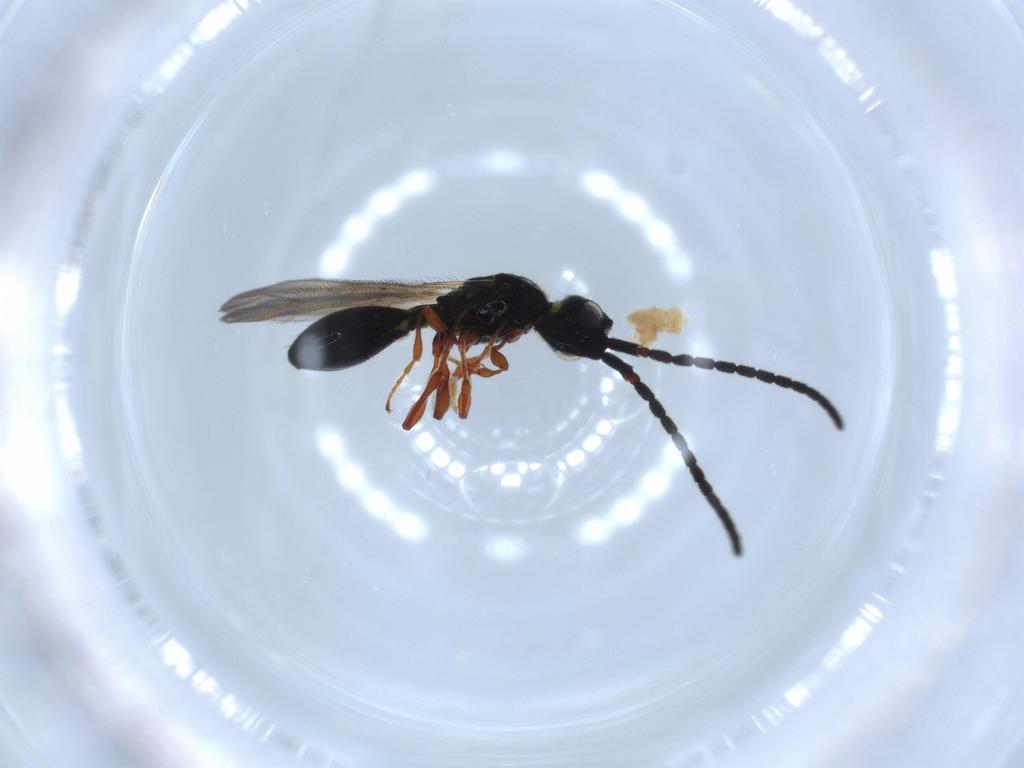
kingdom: Animalia
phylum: Arthropoda
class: Insecta
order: Hymenoptera
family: Diapriidae
